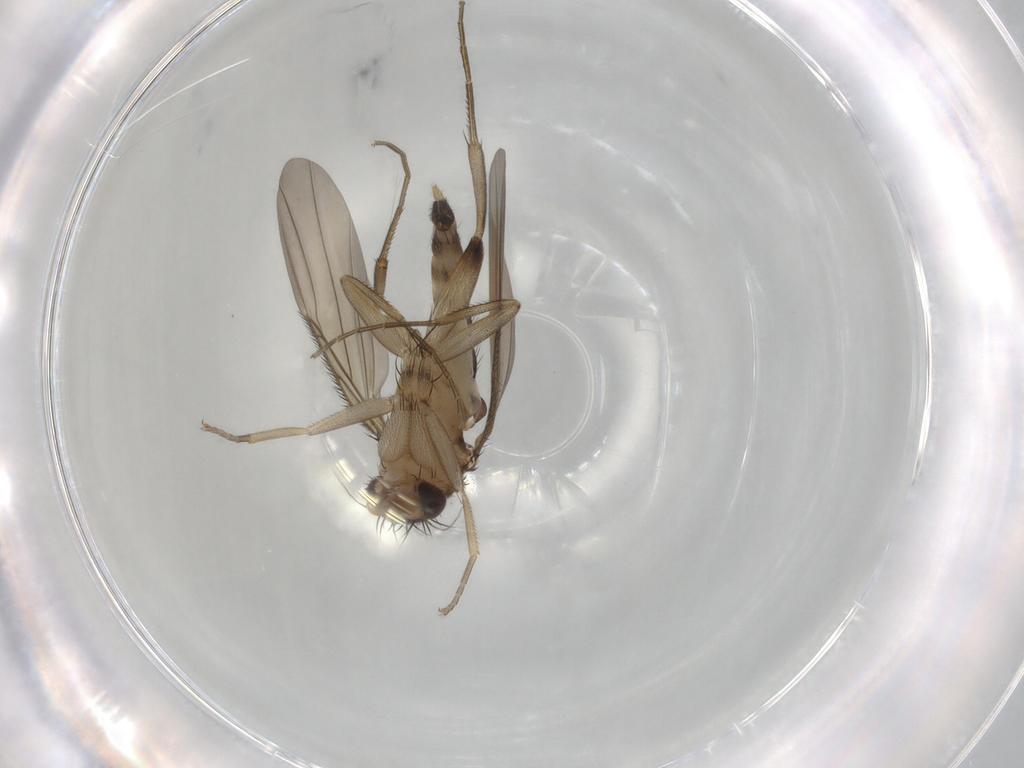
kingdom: Animalia
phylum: Arthropoda
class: Insecta
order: Diptera
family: Phoridae
